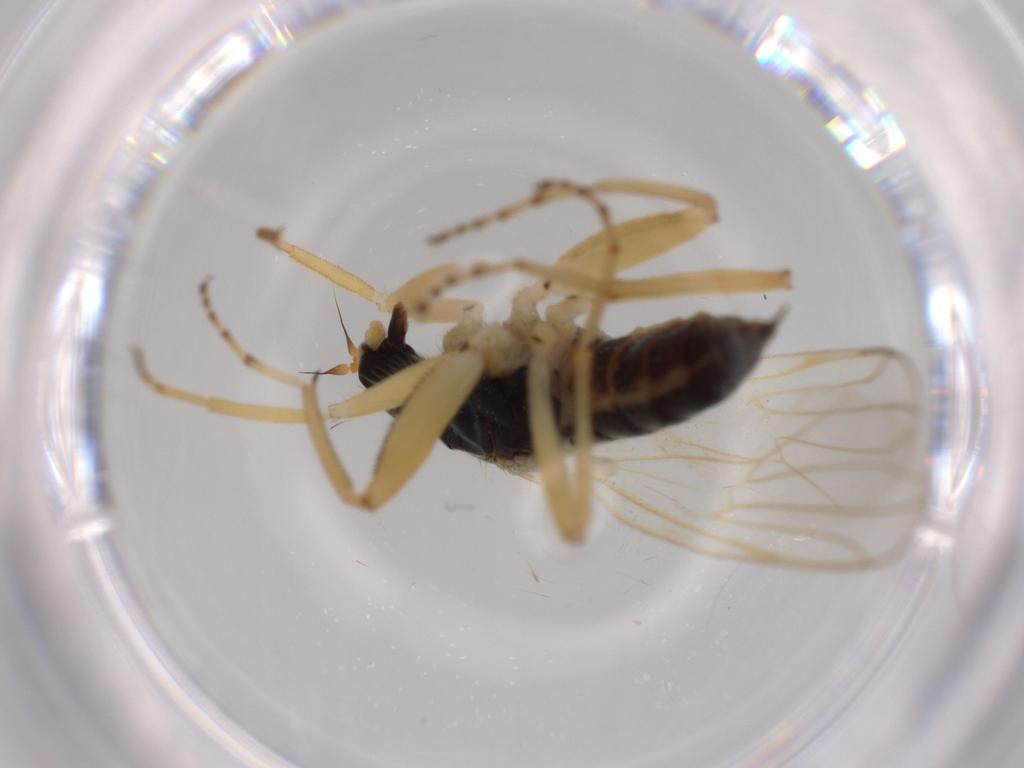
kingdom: Animalia
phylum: Arthropoda
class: Insecta
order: Diptera
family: Hybotidae
